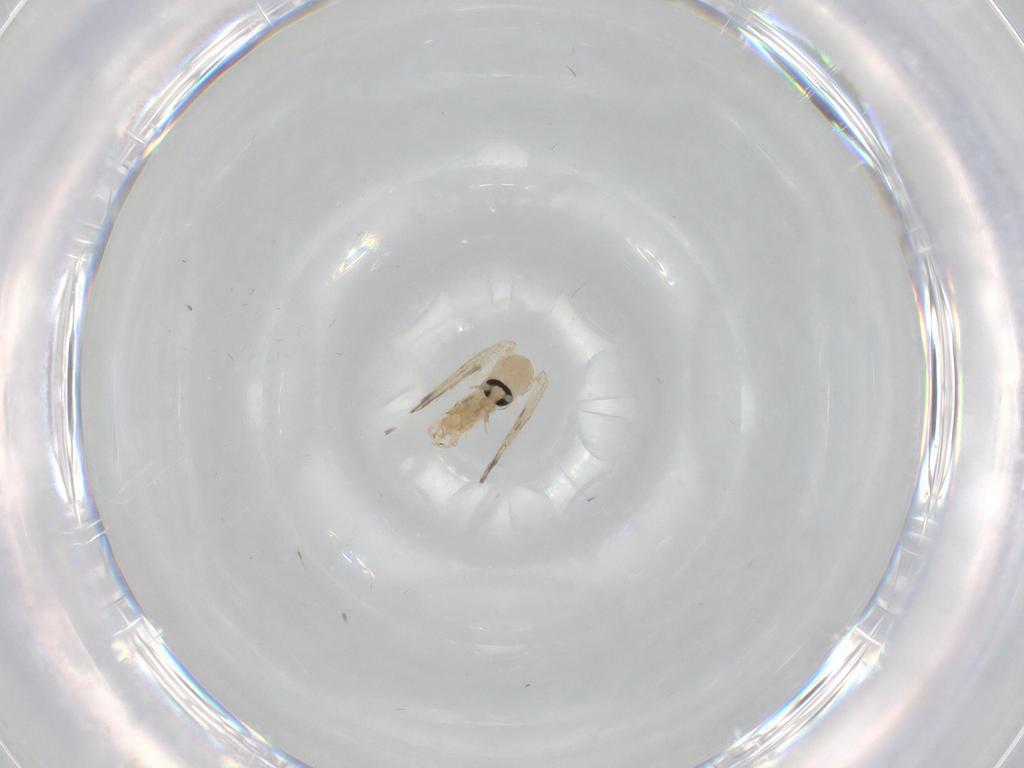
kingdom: Animalia
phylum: Arthropoda
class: Insecta
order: Diptera
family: Psychodidae
